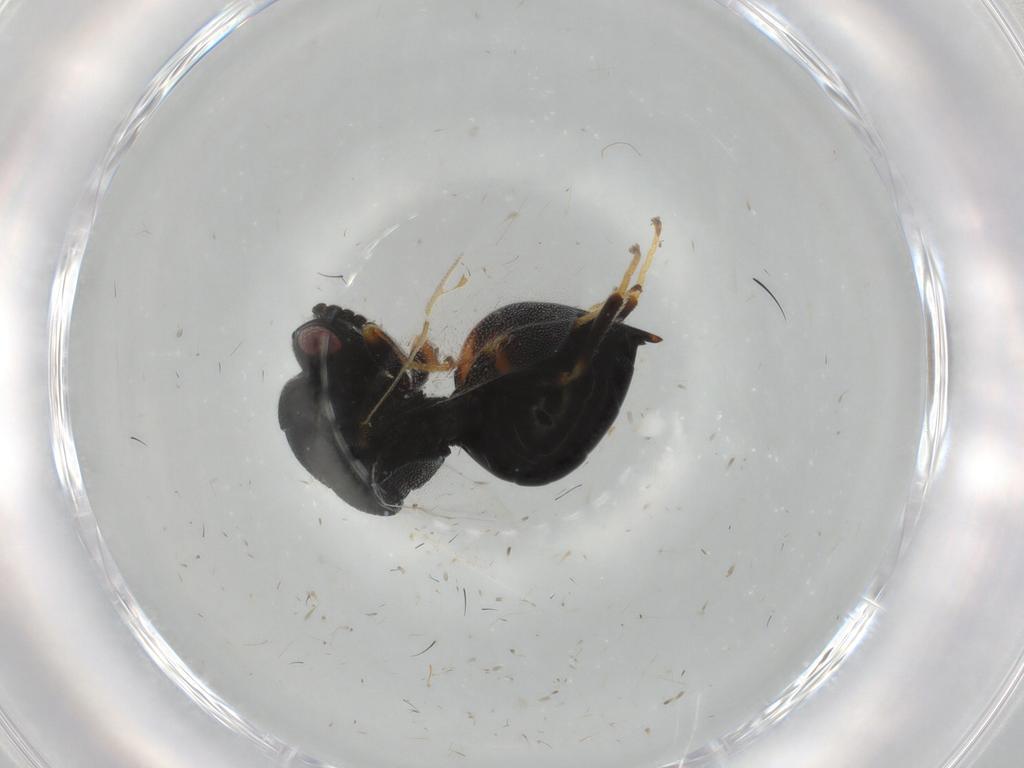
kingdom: Animalia
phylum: Arthropoda
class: Insecta
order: Hymenoptera
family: Eurytomidae
